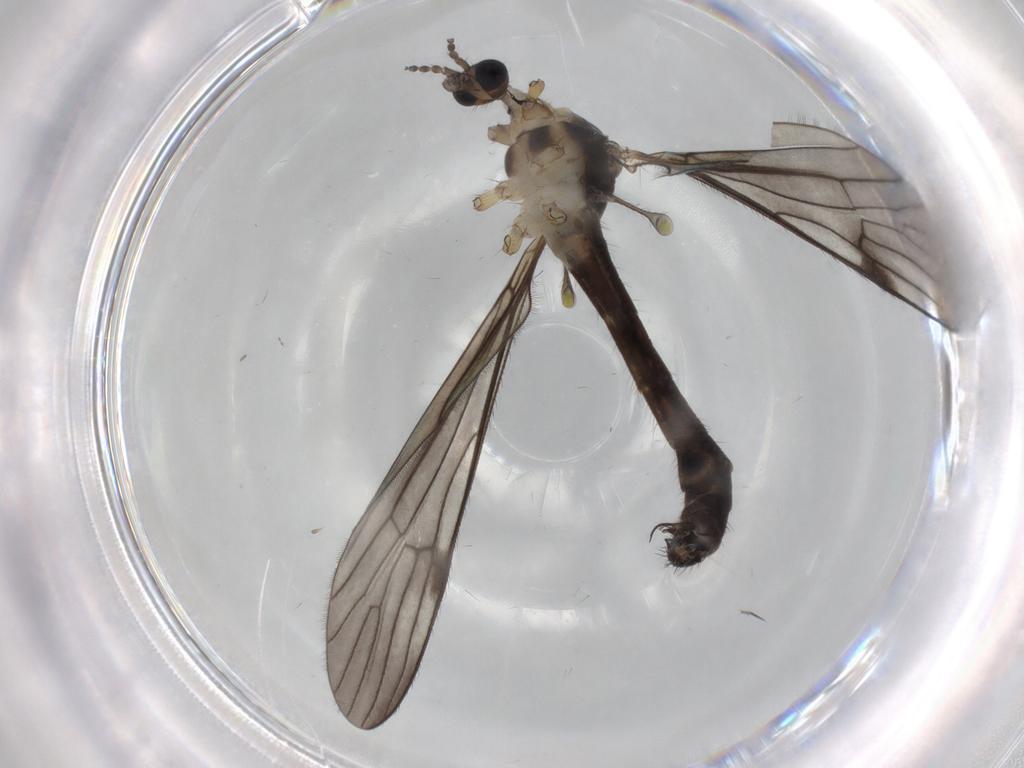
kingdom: Animalia
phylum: Arthropoda
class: Insecta
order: Diptera
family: Limoniidae
